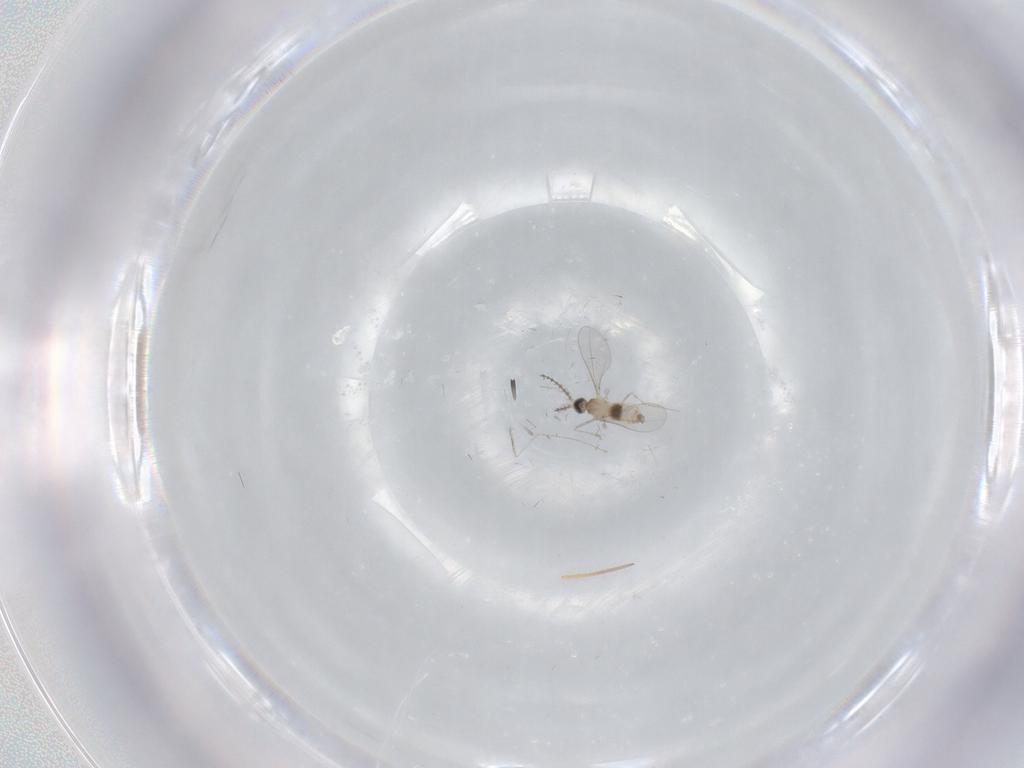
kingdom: Animalia
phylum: Arthropoda
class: Insecta
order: Diptera
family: Cecidomyiidae
